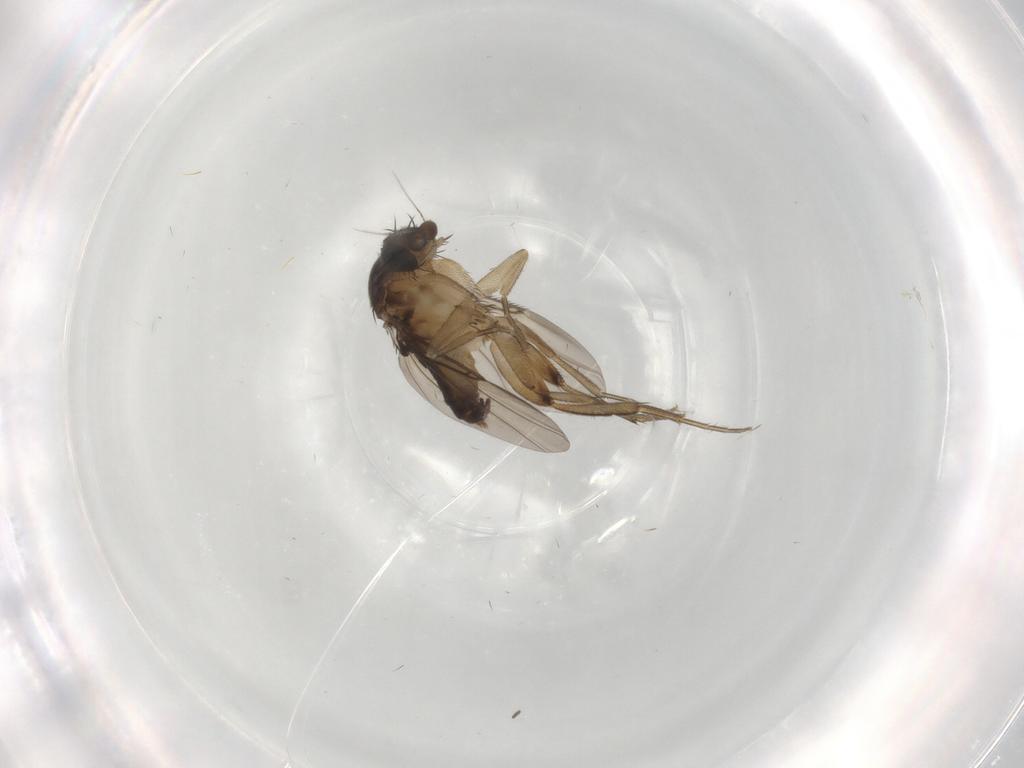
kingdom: Animalia
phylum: Arthropoda
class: Insecta
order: Diptera
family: Phoridae
